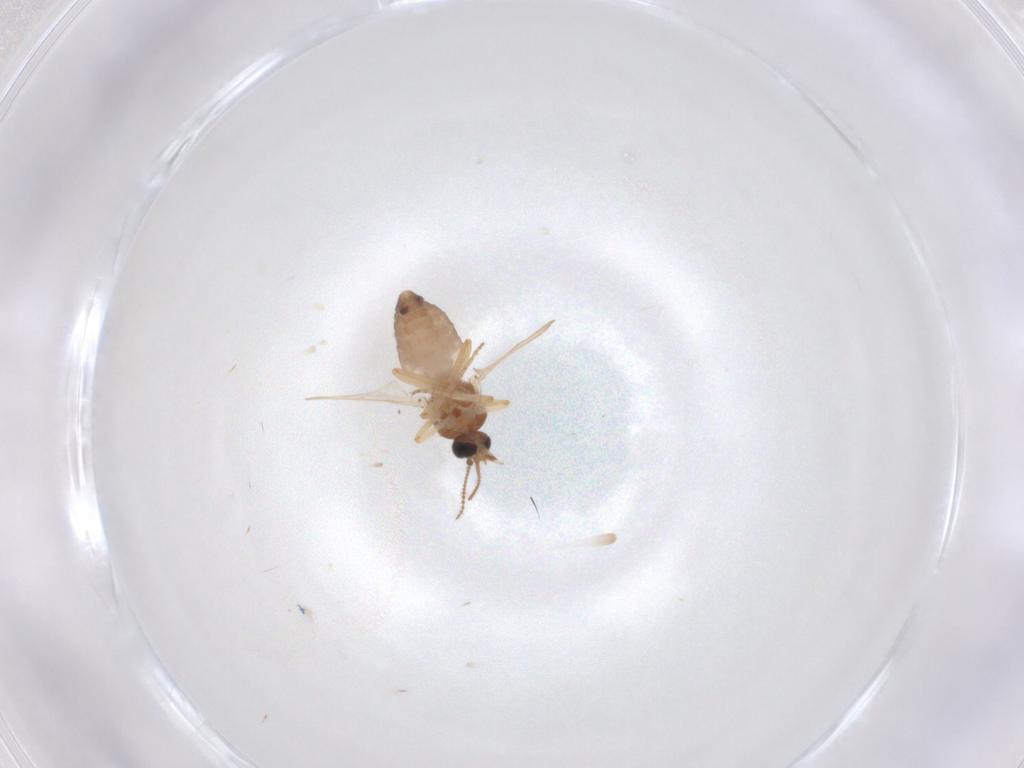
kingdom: Animalia
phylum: Arthropoda
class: Insecta
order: Diptera
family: Ceratopogonidae
